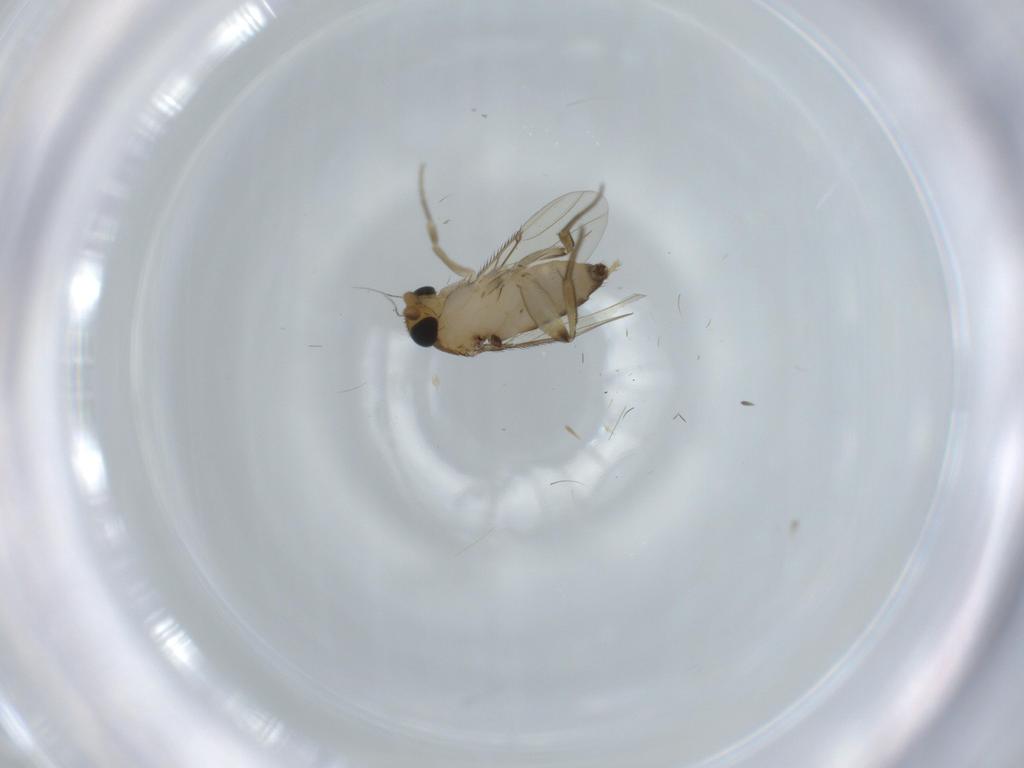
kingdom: Animalia
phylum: Arthropoda
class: Insecta
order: Diptera
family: Phoridae
